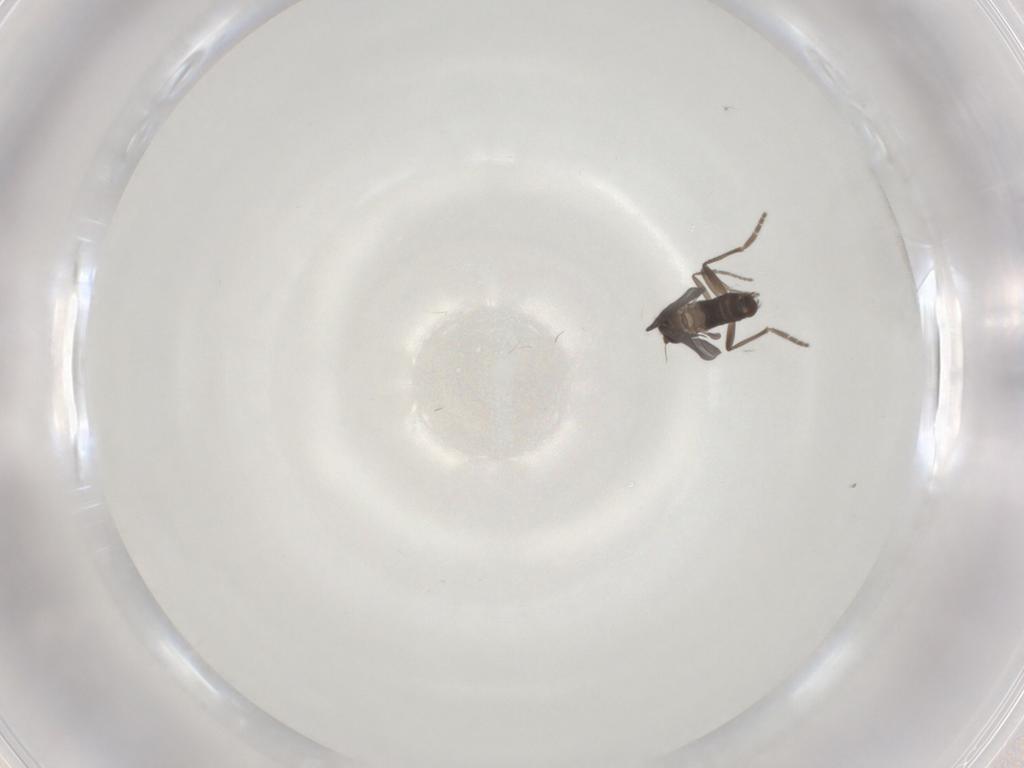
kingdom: Animalia
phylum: Arthropoda
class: Insecta
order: Diptera
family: Phoridae
